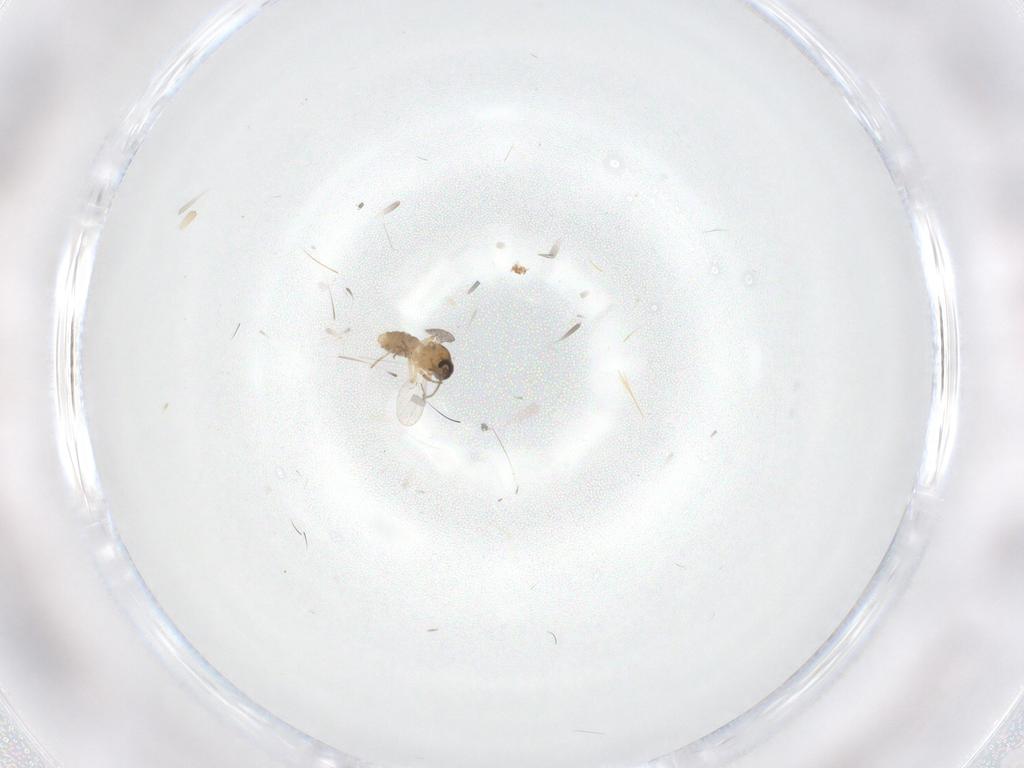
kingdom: Animalia
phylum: Arthropoda
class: Insecta
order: Diptera
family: Ceratopogonidae
